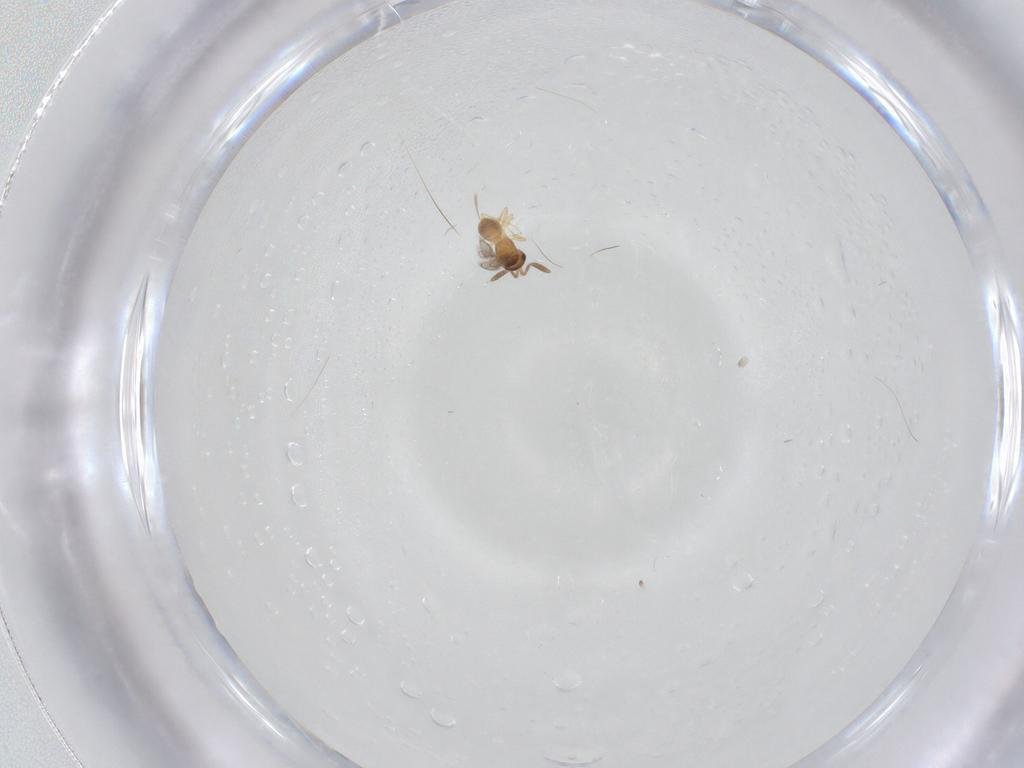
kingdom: Animalia
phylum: Arthropoda
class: Insecta
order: Hymenoptera
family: Scelionidae
